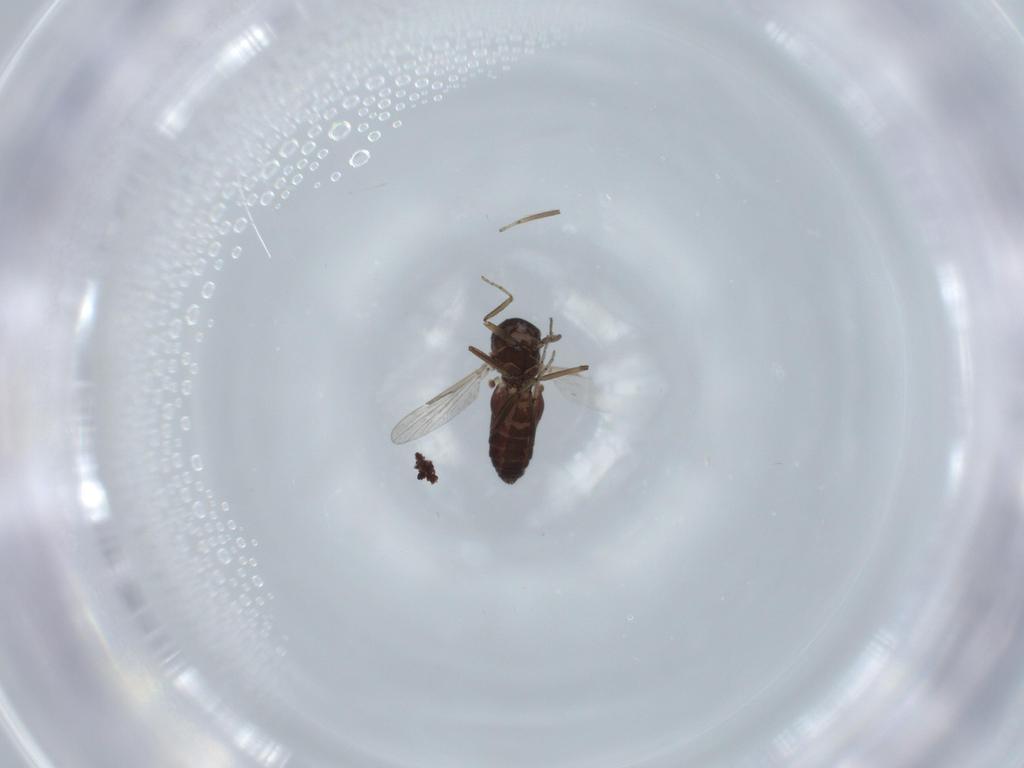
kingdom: Animalia
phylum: Arthropoda
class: Insecta
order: Diptera
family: Ceratopogonidae
